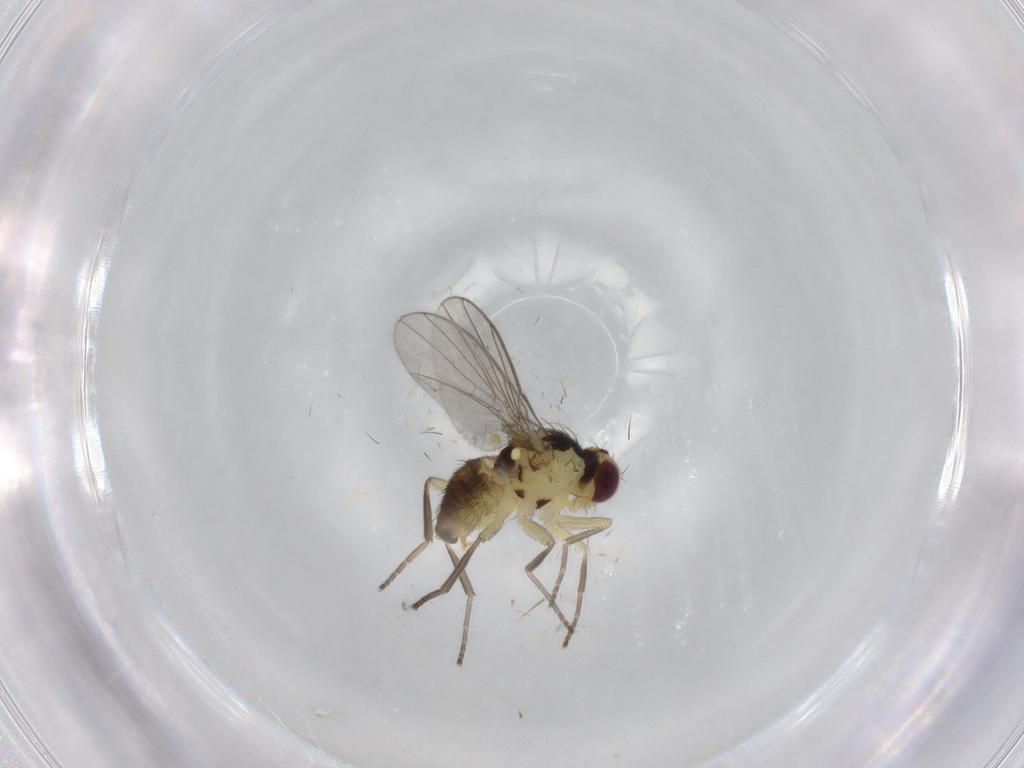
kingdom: Animalia
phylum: Arthropoda
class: Insecta
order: Diptera
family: Agromyzidae
